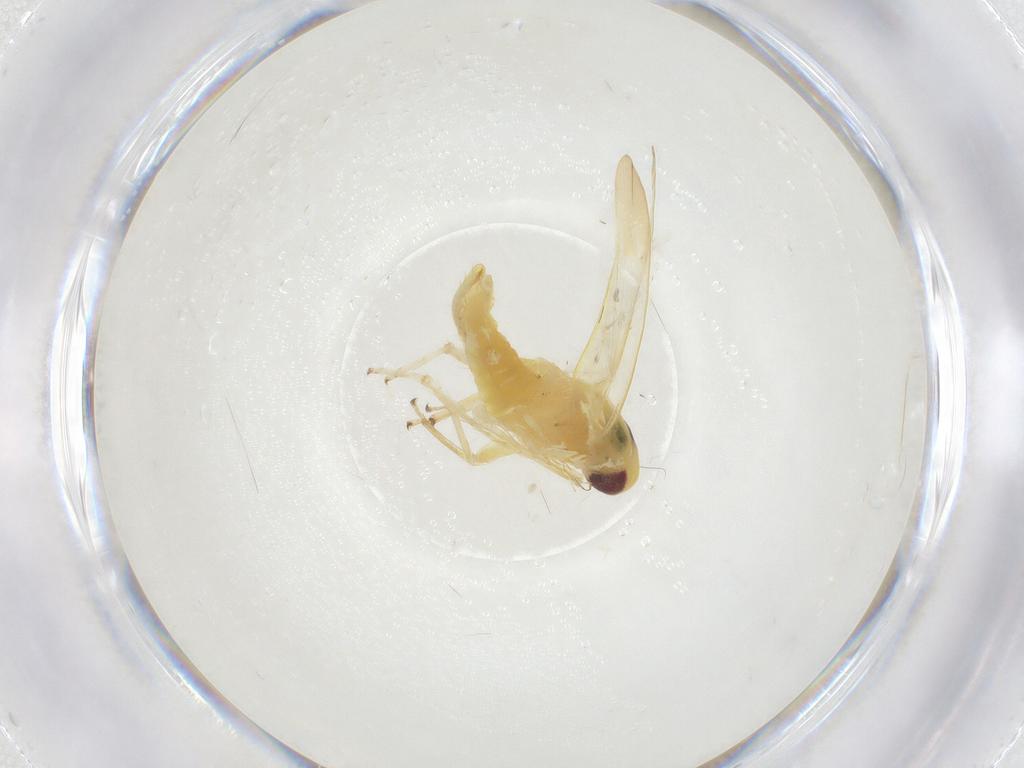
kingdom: Animalia
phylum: Arthropoda
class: Insecta
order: Hemiptera
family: Cicadellidae
